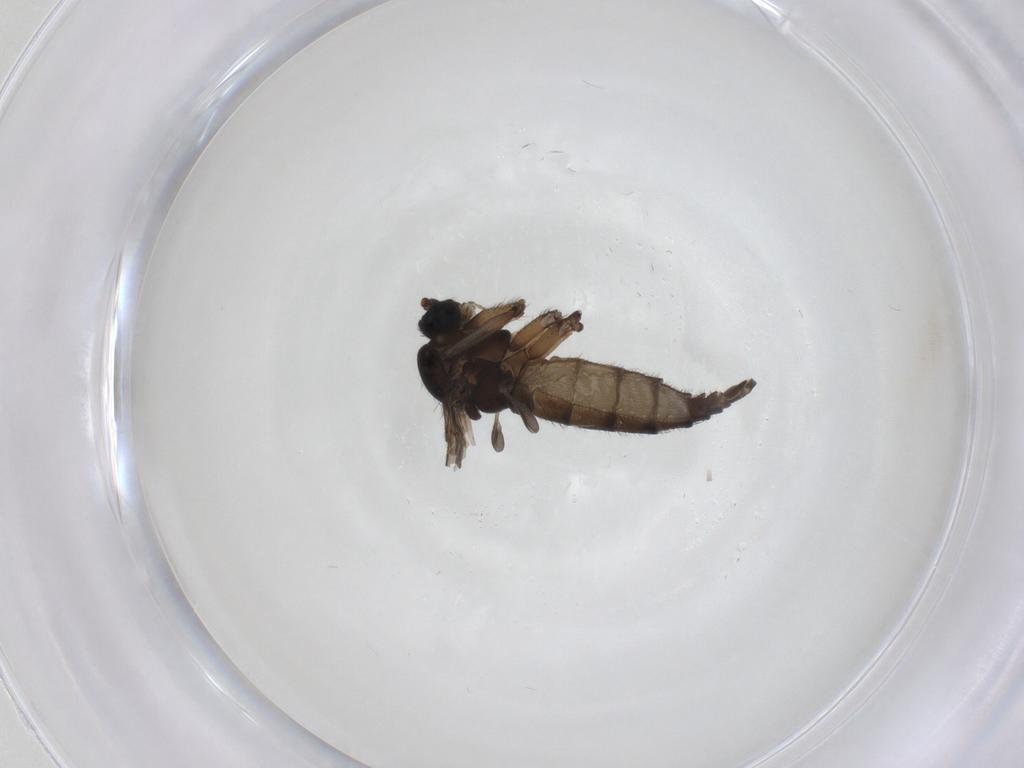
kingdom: Animalia
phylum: Arthropoda
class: Insecta
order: Diptera
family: Sciaridae
